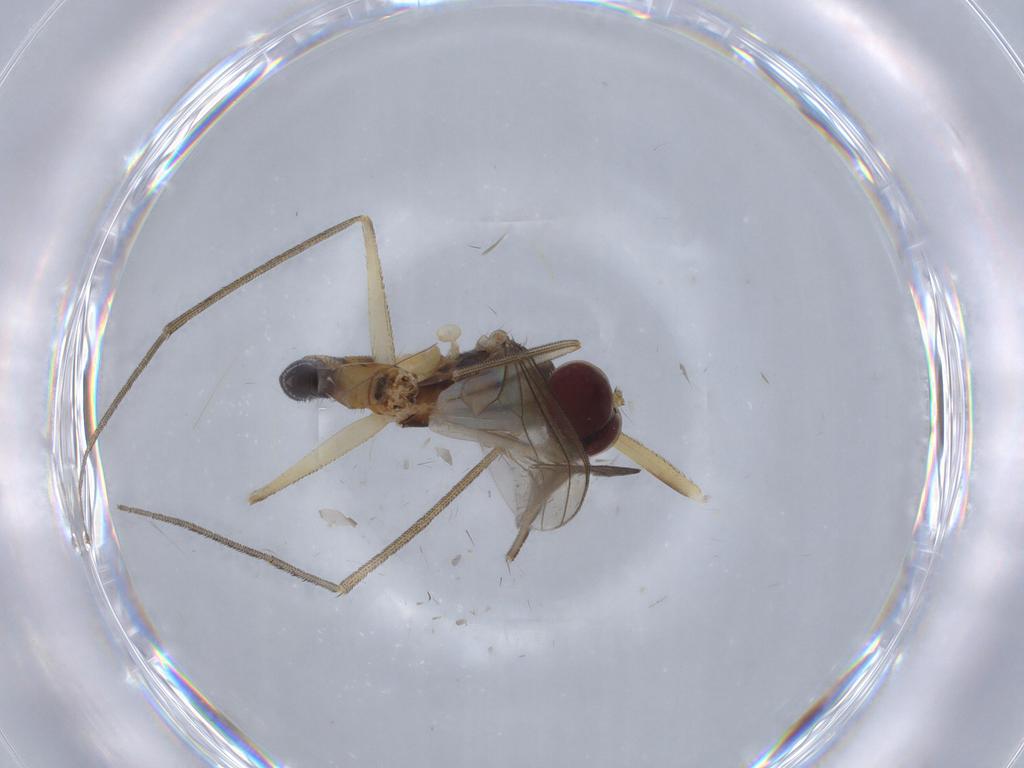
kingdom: Animalia
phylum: Arthropoda
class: Insecta
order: Diptera
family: Dolichopodidae
